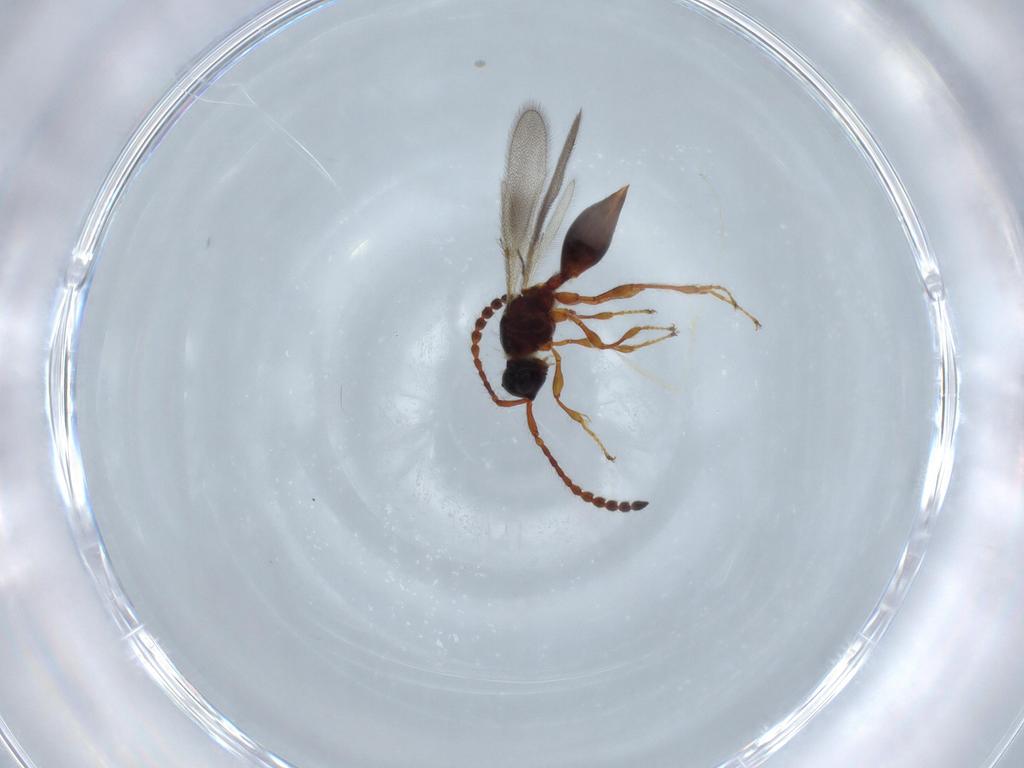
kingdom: Animalia
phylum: Arthropoda
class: Insecta
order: Hymenoptera
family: Diapriidae
